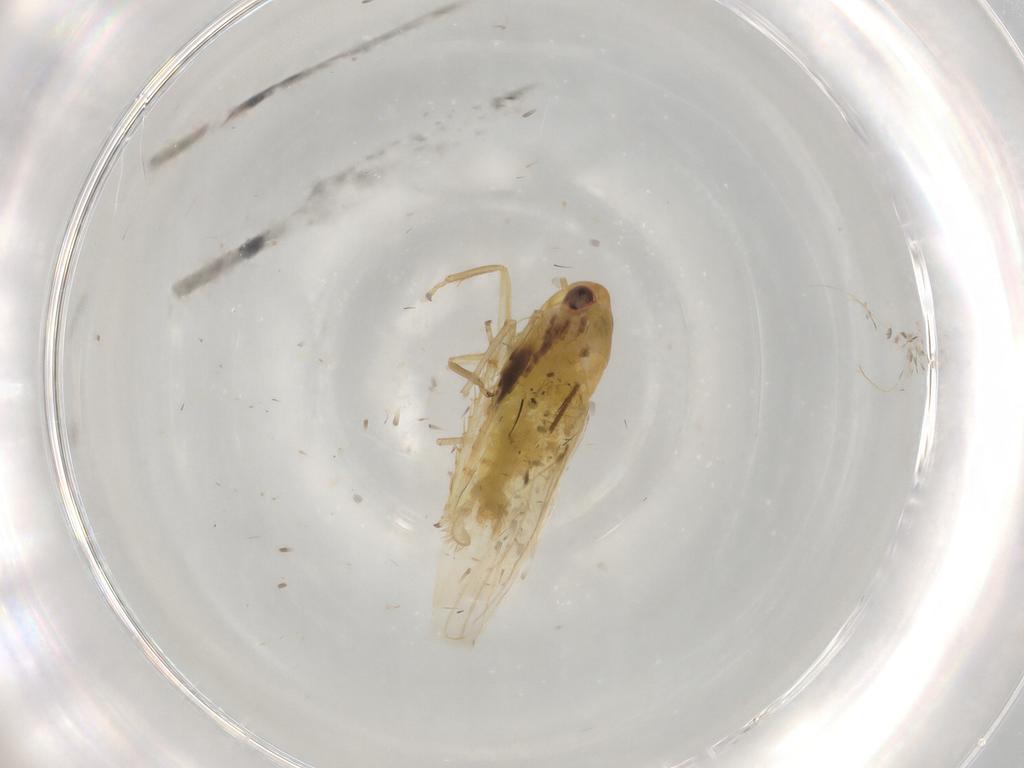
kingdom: Animalia
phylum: Arthropoda
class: Insecta
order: Hemiptera
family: Cicadellidae
